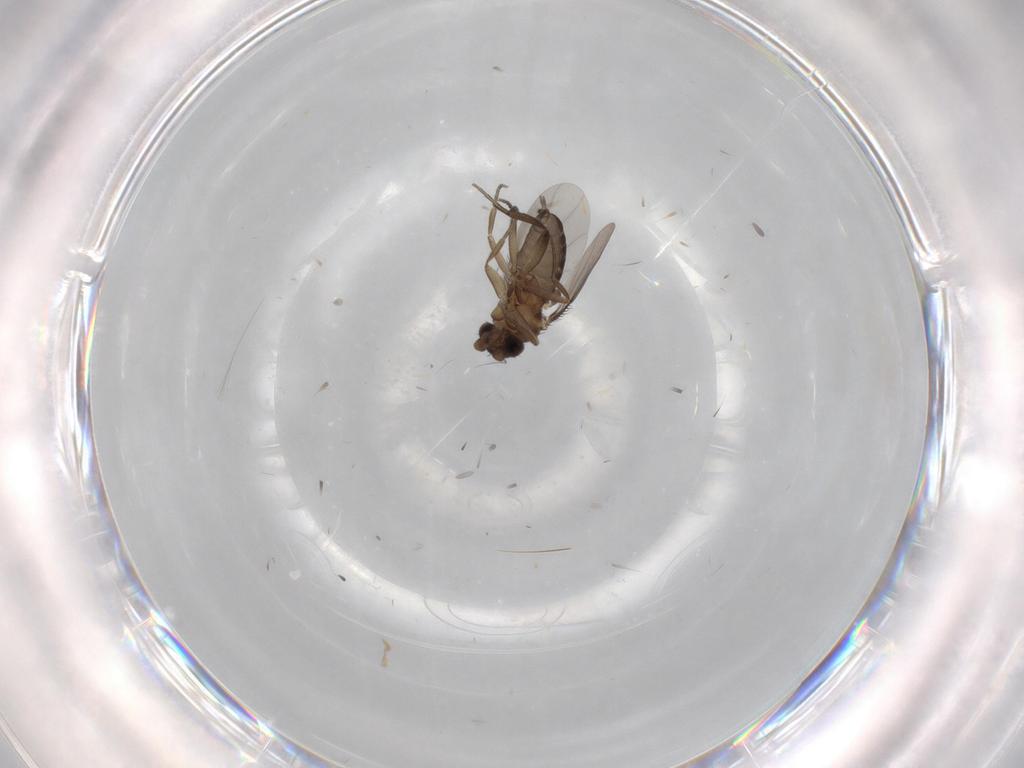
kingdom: Animalia
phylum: Arthropoda
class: Insecta
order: Diptera
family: Phoridae
